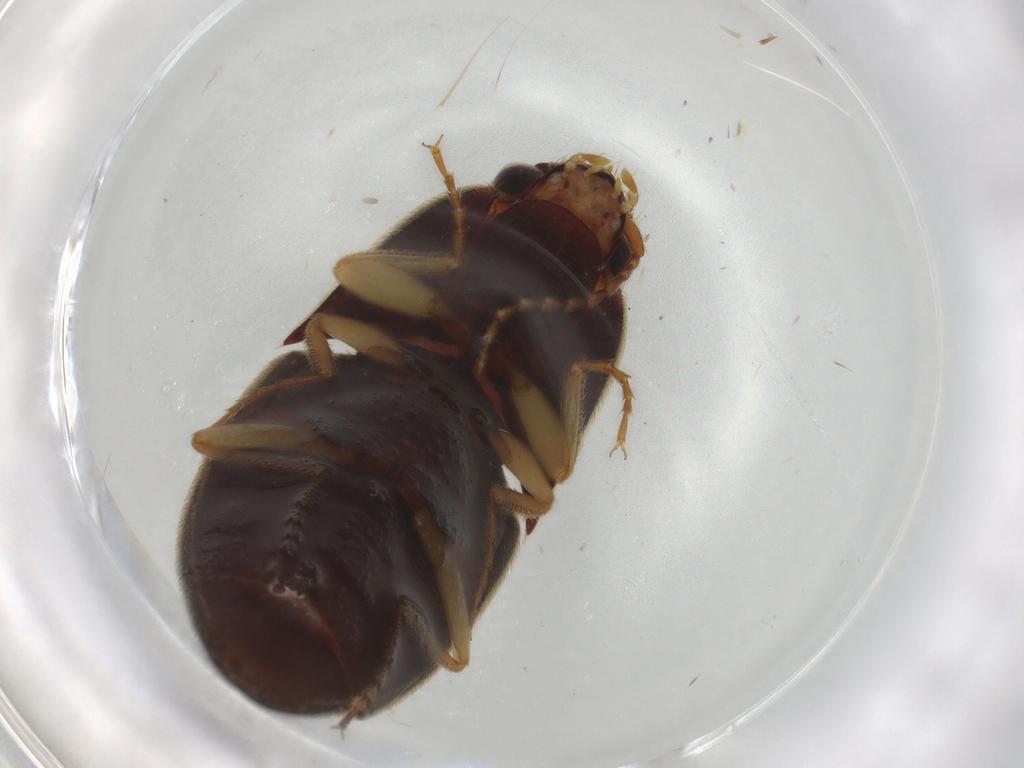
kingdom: Animalia
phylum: Arthropoda
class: Insecta
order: Coleoptera
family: Elateridae
